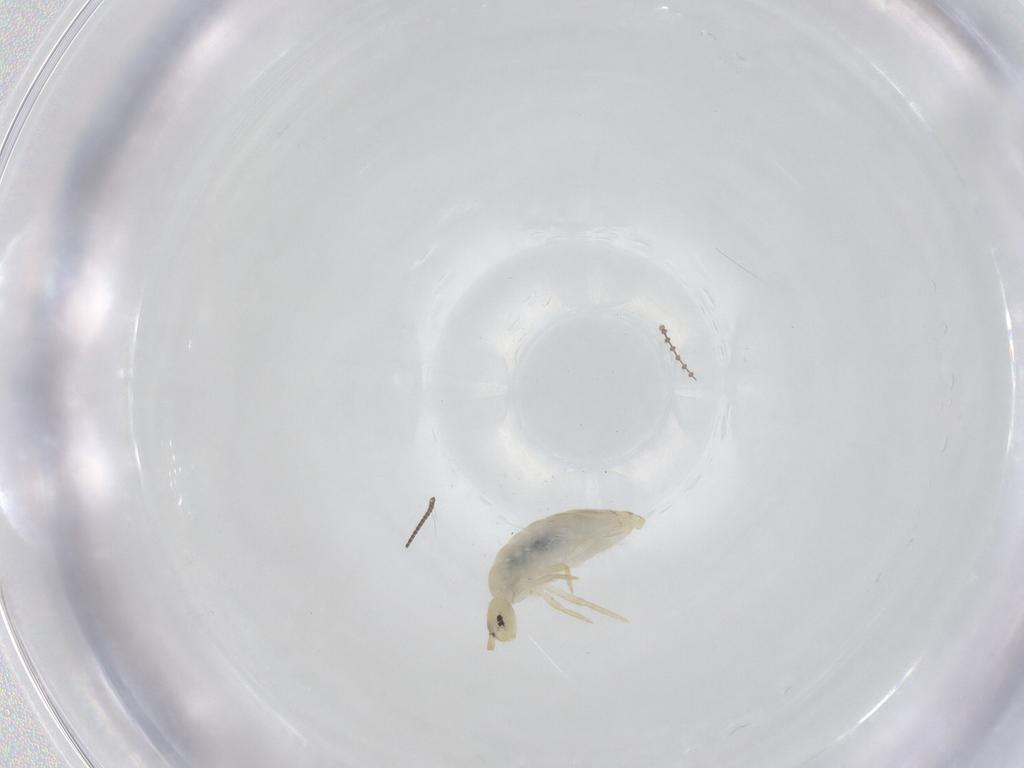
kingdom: Animalia
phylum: Arthropoda
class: Collembola
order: Entomobryomorpha
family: Entomobryidae
